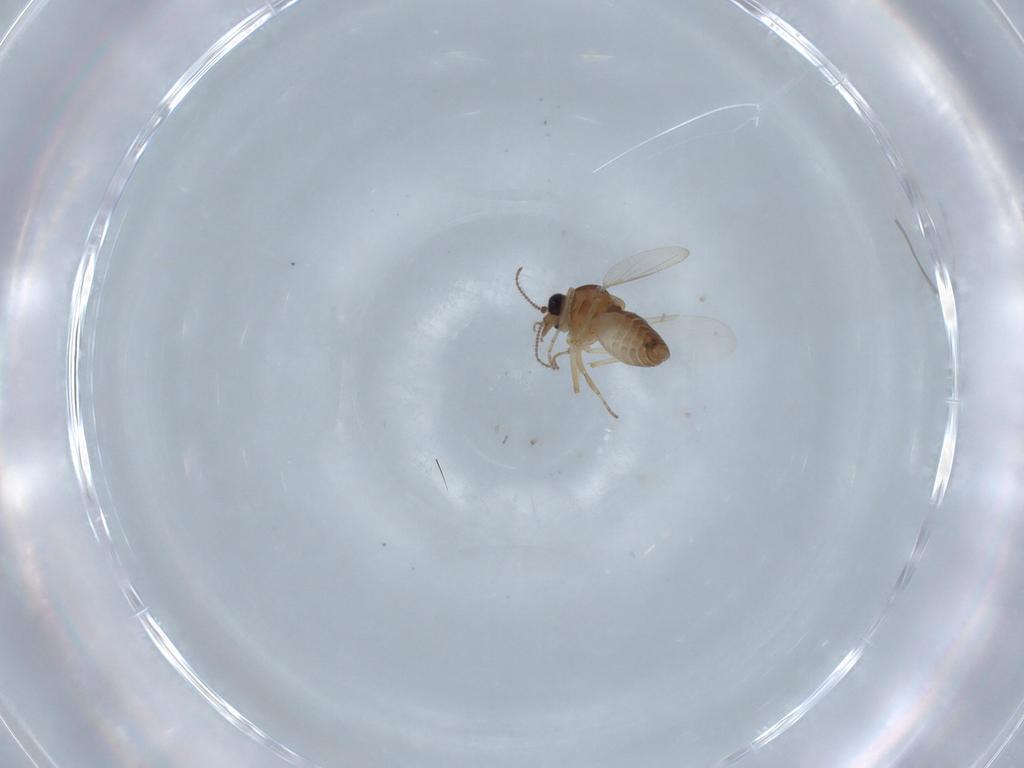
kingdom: Animalia
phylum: Arthropoda
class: Insecta
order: Diptera
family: Ceratopogonidae
